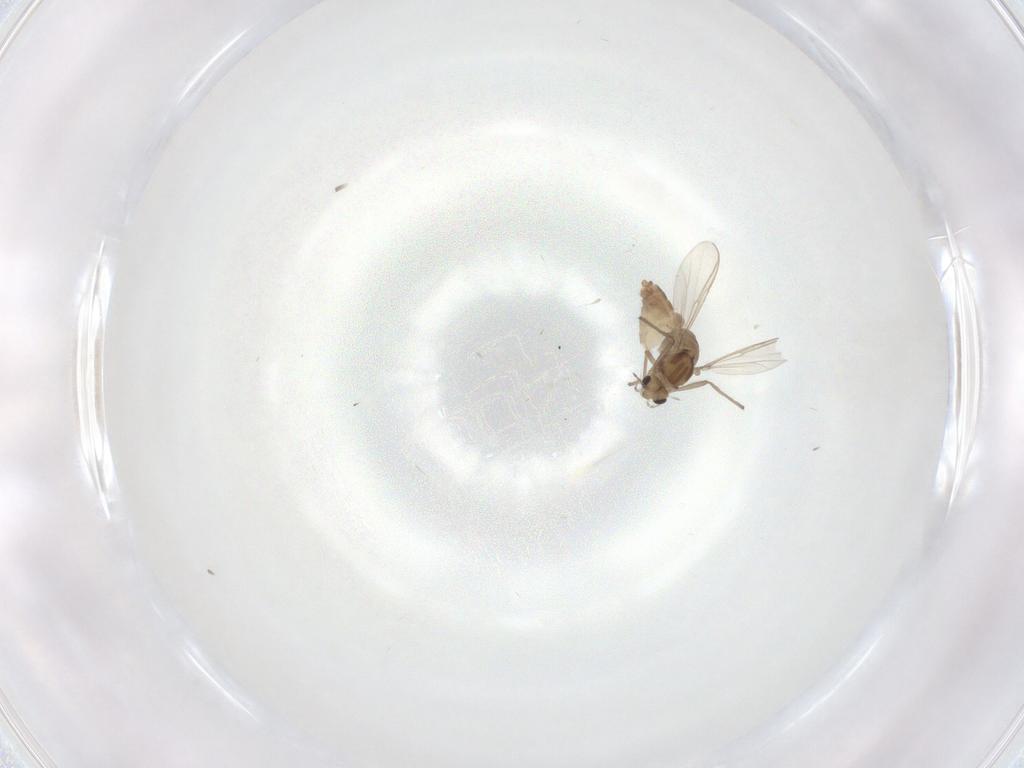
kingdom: Animalia
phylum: Arthropoda
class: Insecta
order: Diptera
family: Chironomidae
